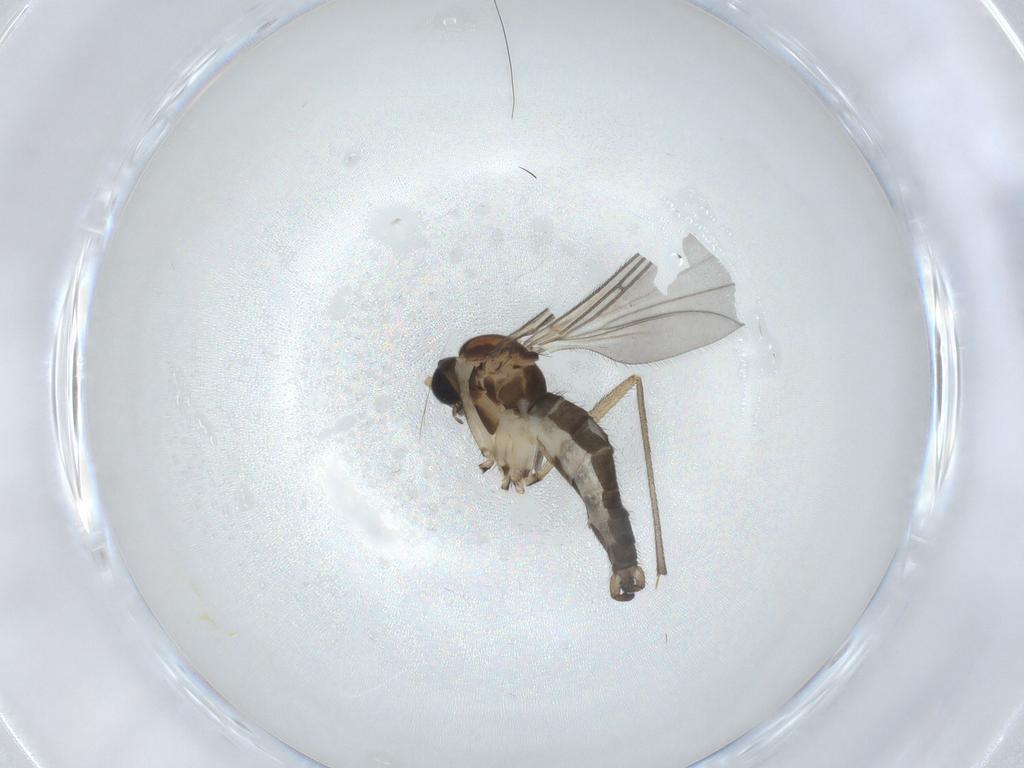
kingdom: Animalia
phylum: Arthropoda
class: Insecta
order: Diptera
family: Sciaridae
